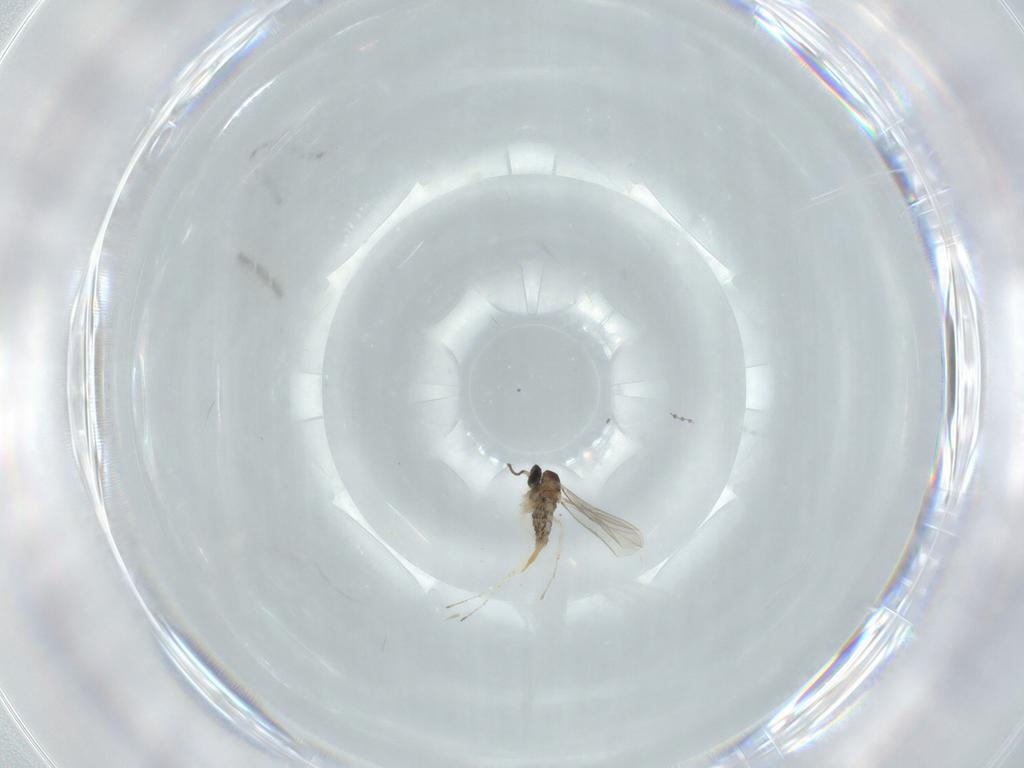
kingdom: Animalia
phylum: Arthropoda
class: Insecta
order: Diptera
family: Cecidomyiidae
